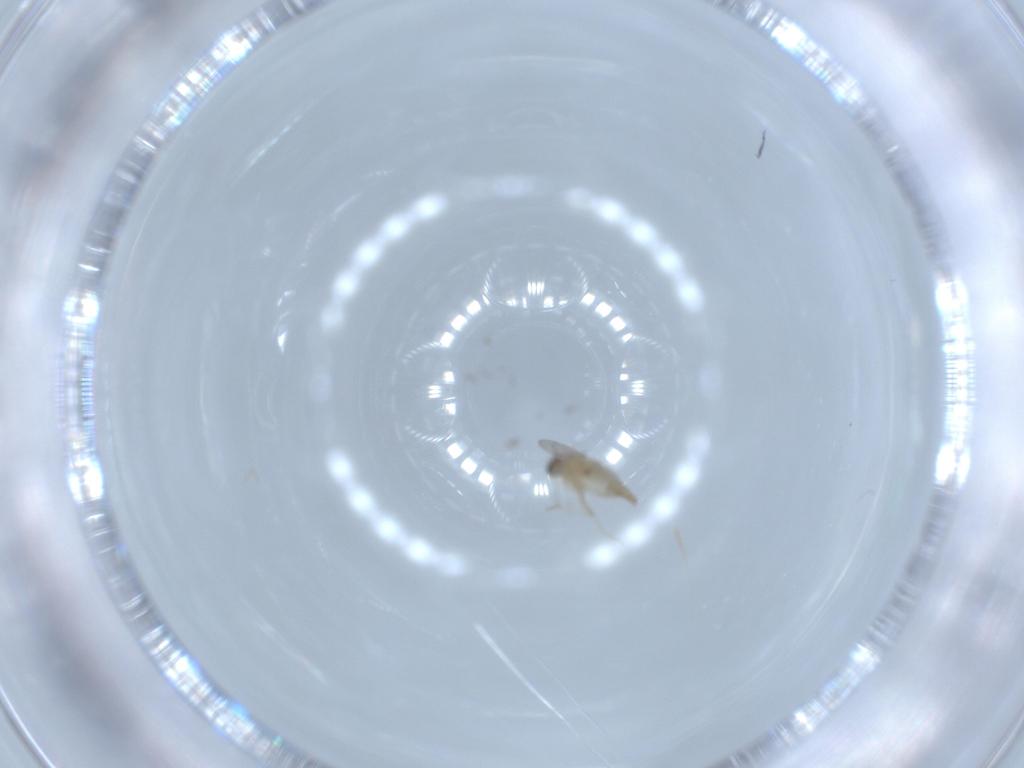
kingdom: Animalia
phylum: Arthropoda
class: Insecta
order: Diptera
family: Cecidomyiidae
